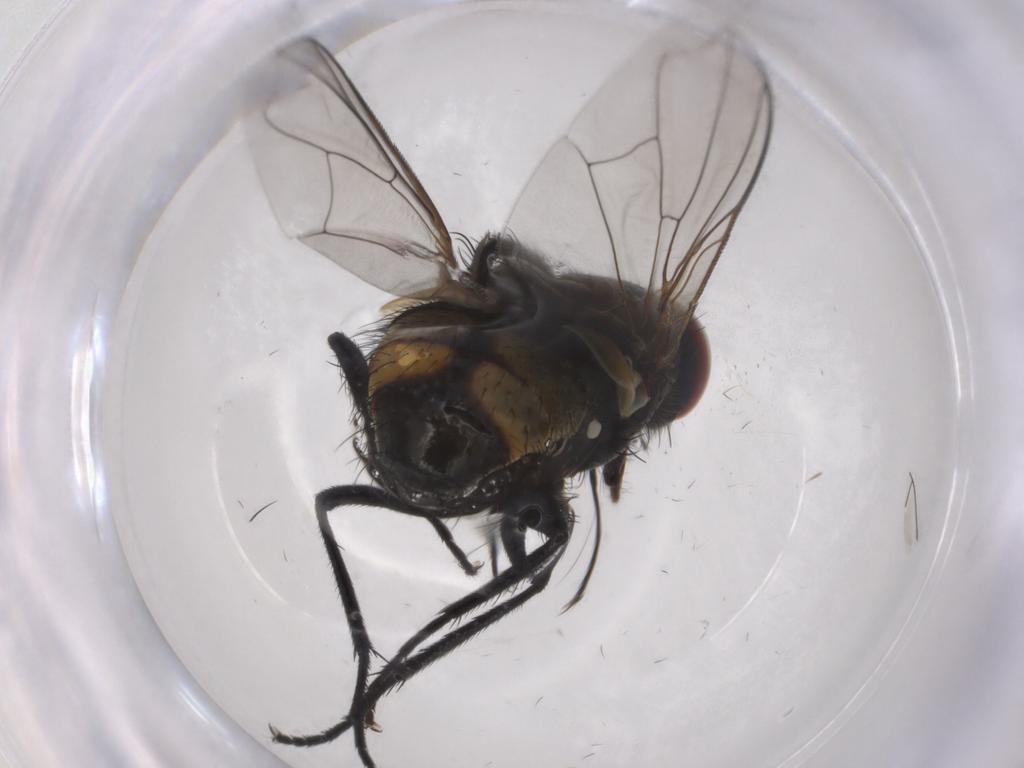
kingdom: Animalia
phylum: Arthropoda
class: Insecta
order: Diptera
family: Muscidae
